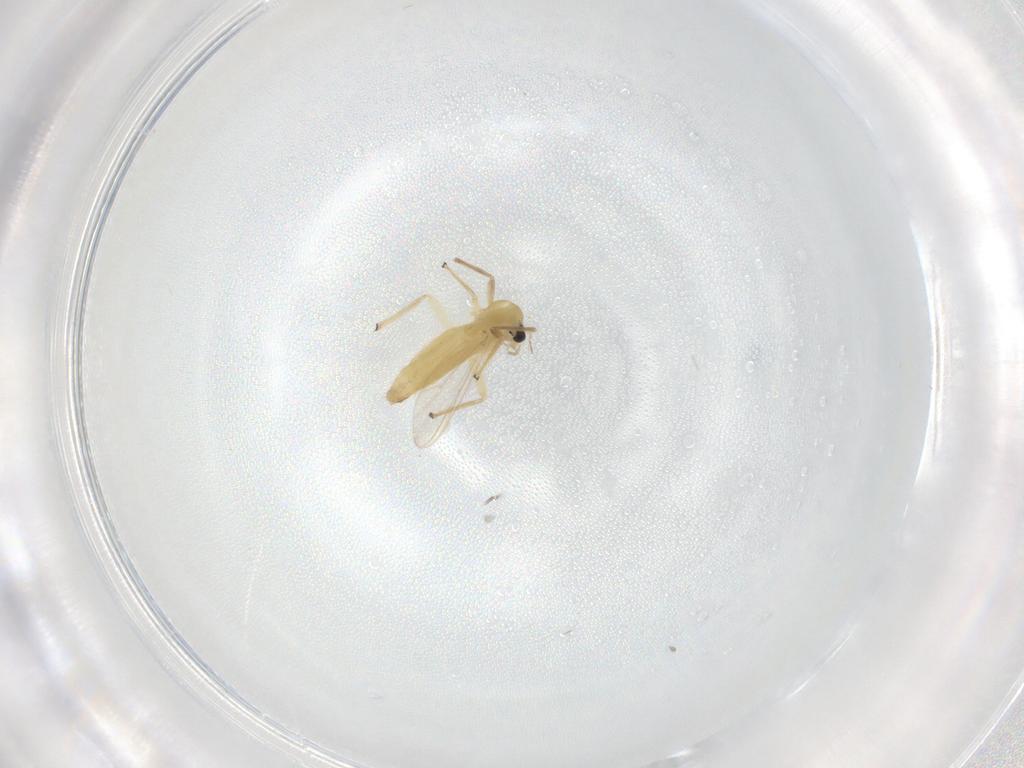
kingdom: Animalia
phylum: Arthropoda
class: Insecta
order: Diptera
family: Chironomidae
